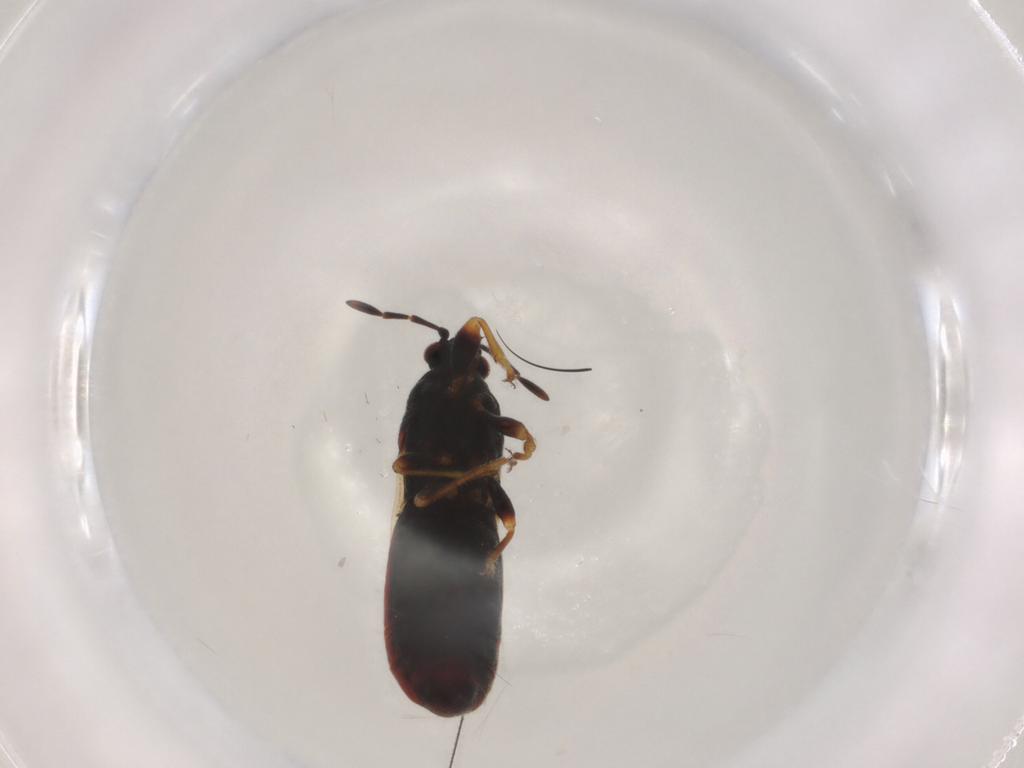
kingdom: Animalia
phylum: Arthropoda
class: Insecta
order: Hemiptera
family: Blissidae
